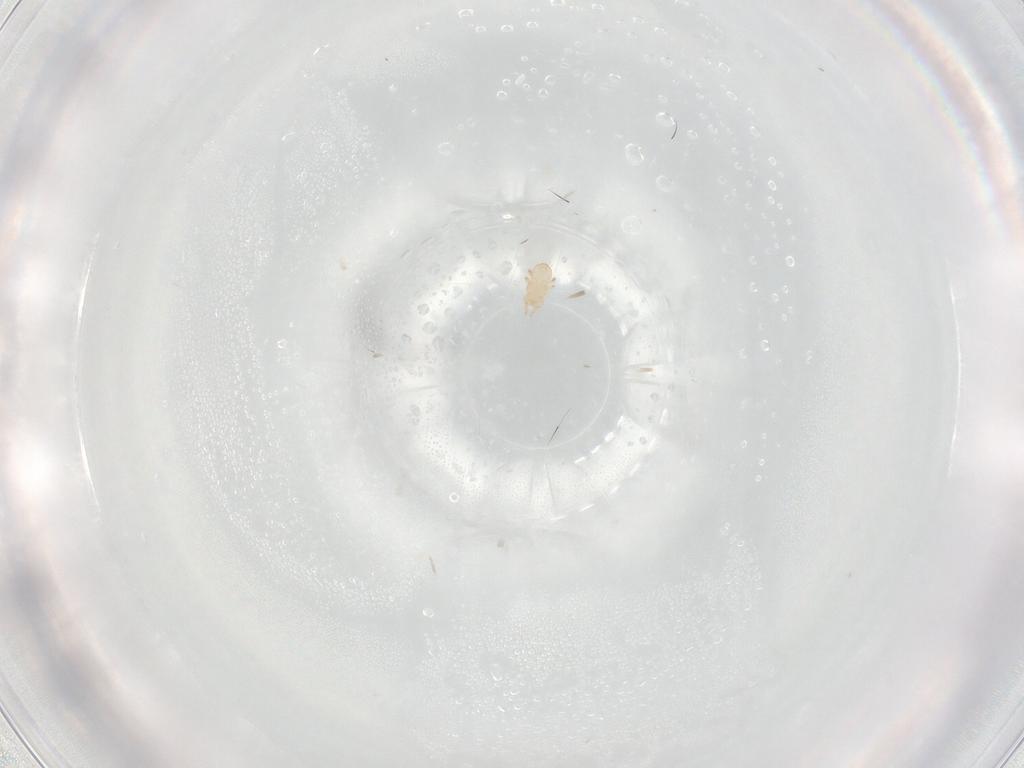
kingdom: Animalia
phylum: Arthropoda
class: Arachnida
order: Mesostigmata
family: Microgyniidae
